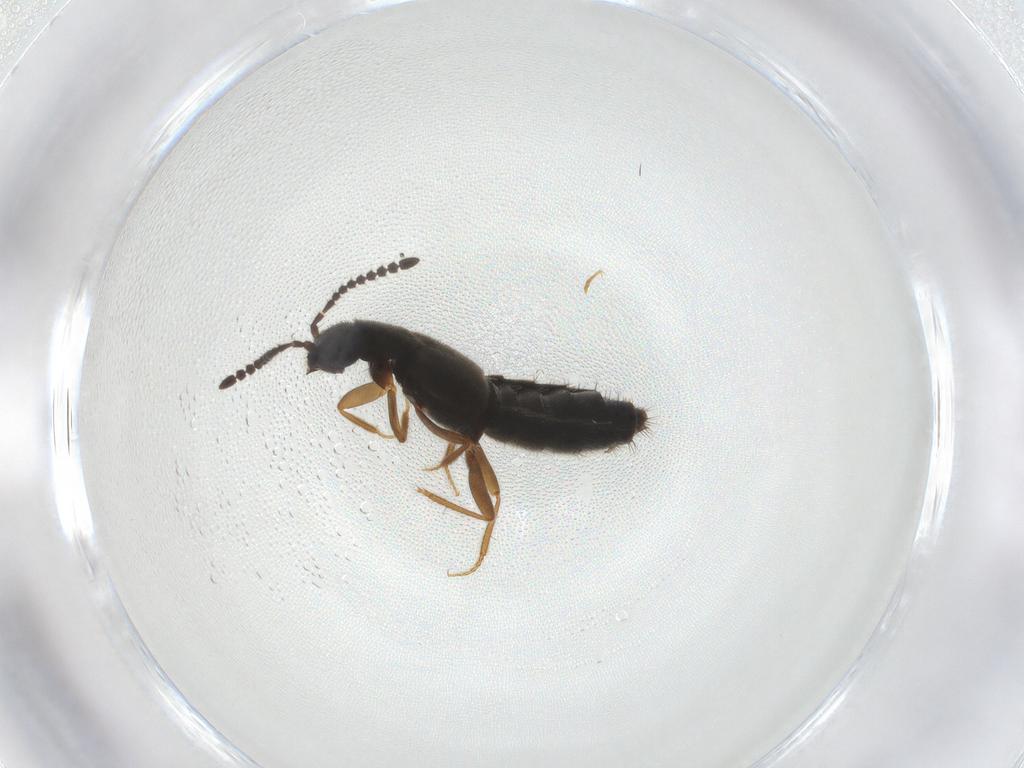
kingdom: Animalia
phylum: Arthropoda
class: Insecta
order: Coleoptera
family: Staphylinidae
